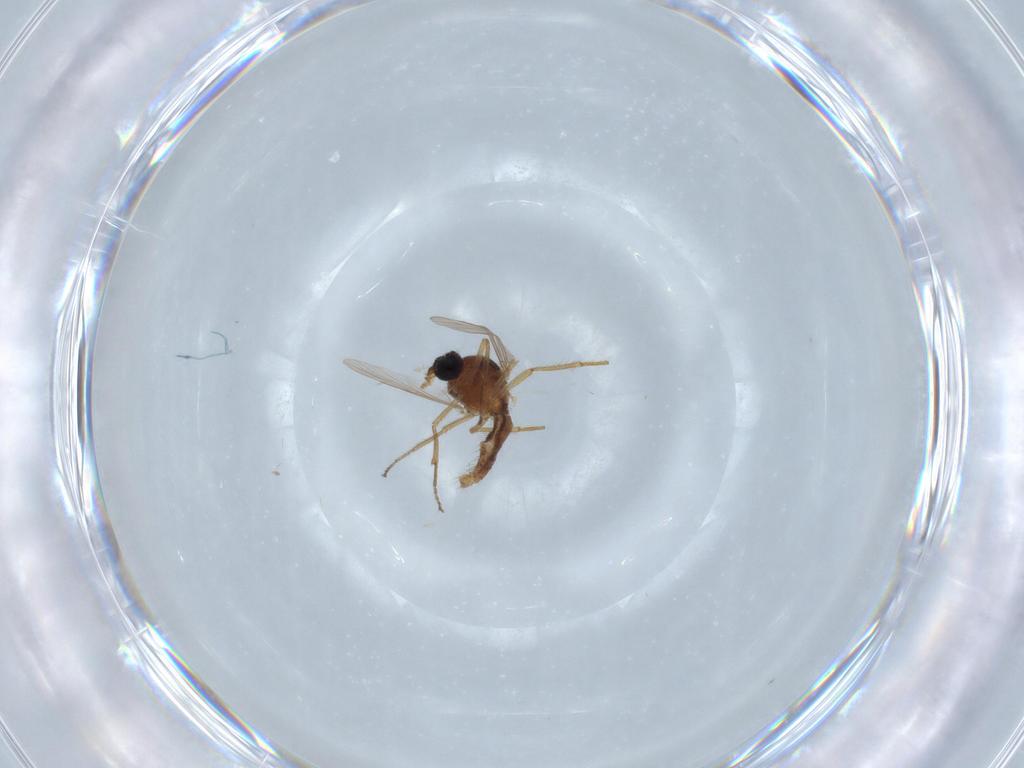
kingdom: Animalia
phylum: Arthropoda
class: Insecta
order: Diptera
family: Ceratopogonidae
